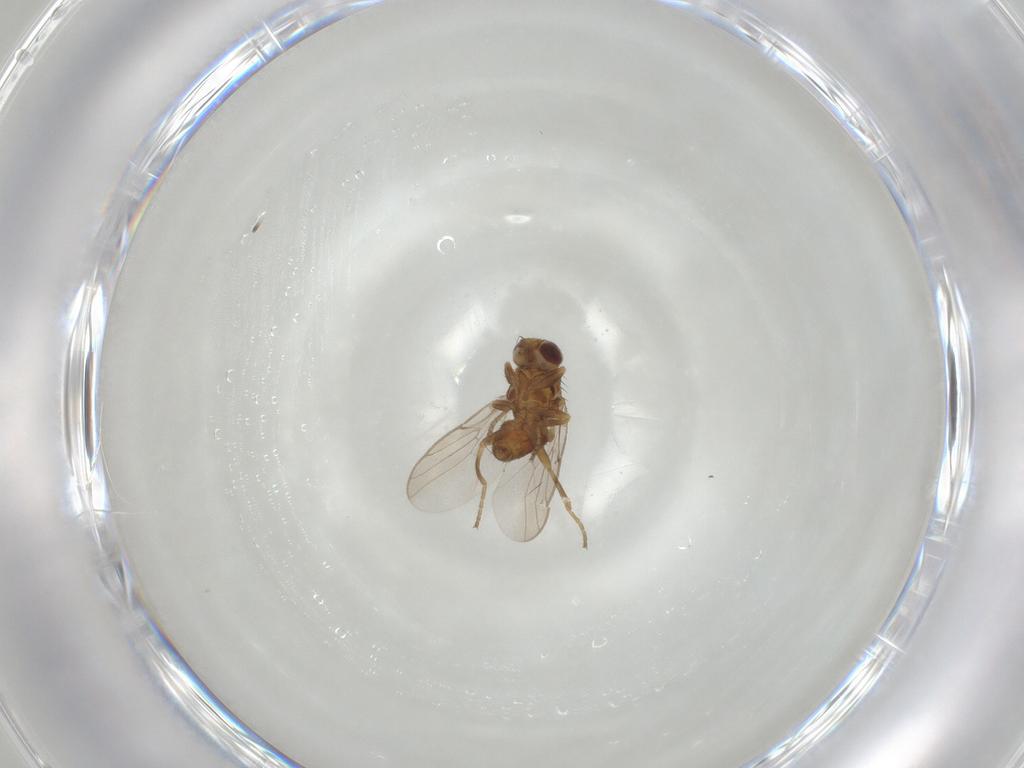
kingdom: Animalia
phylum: Arthropoda
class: Insecta
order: Diptera
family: Chloropidae
